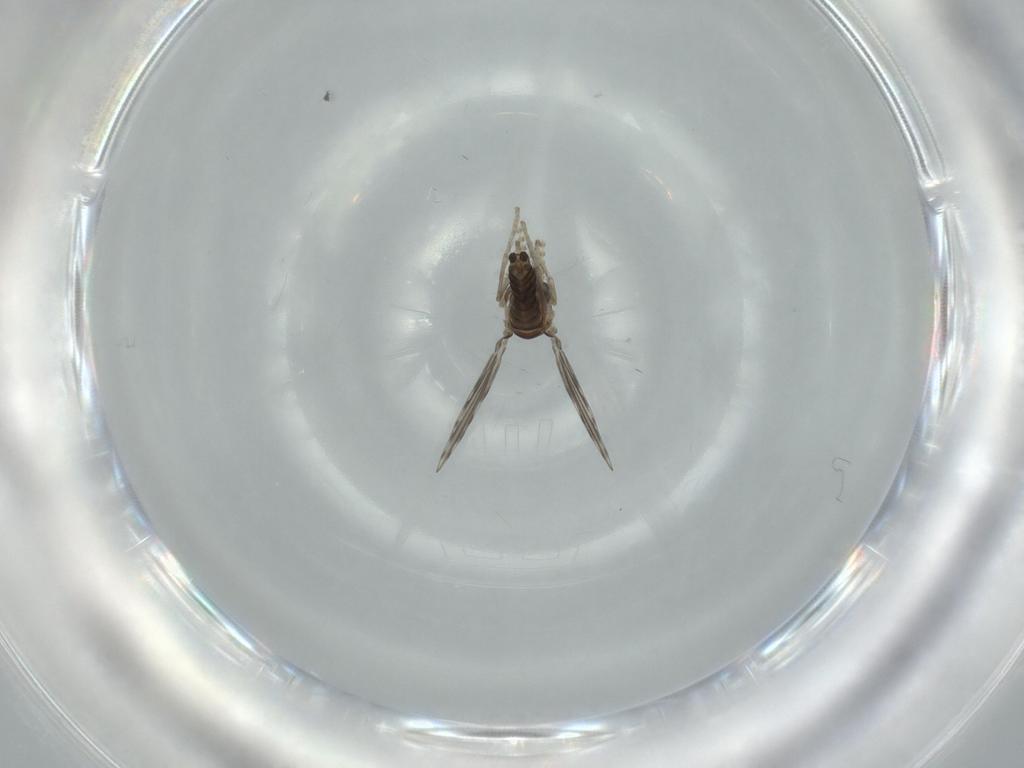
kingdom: Animalia
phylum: Arthropoda
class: Insecta
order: Diptera
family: Psychodidae
